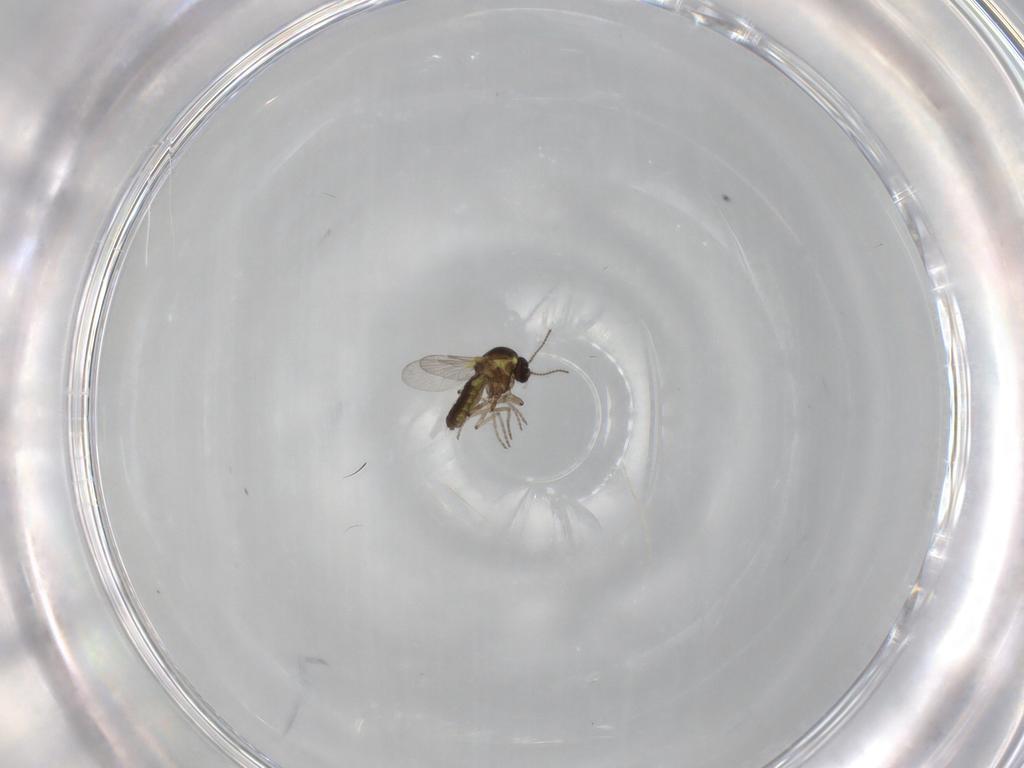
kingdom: Animalia
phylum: Arthropoda
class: Insecta
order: Diptera
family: Ceratopogonidae
